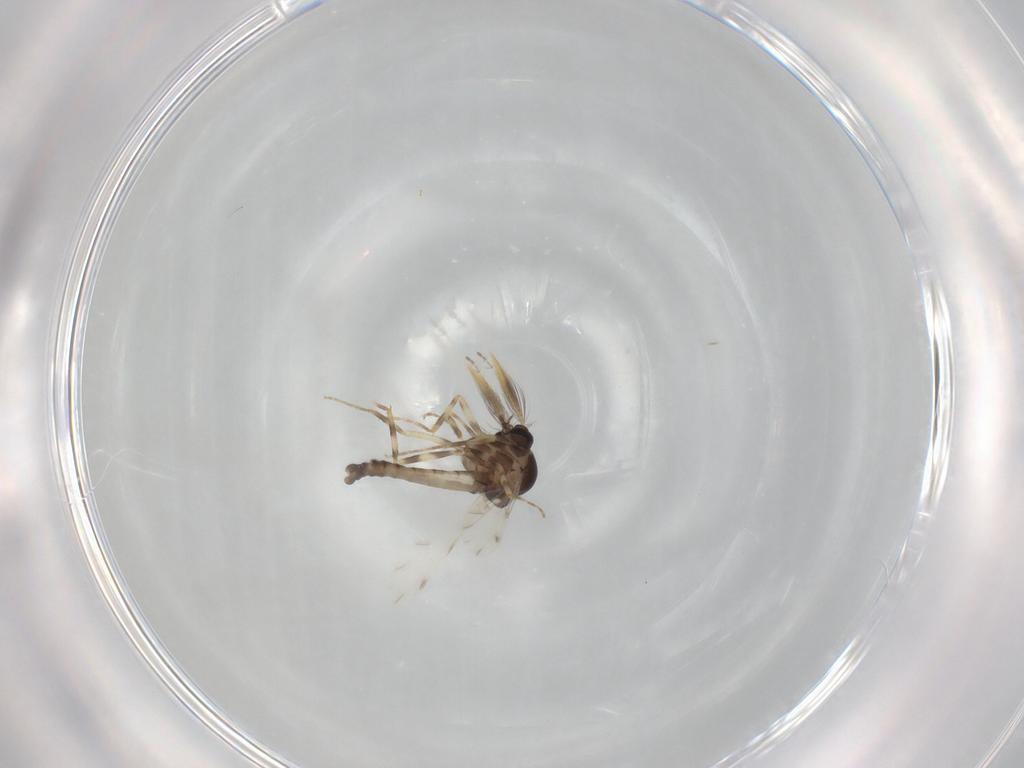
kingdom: Animalia
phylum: Arthropoda
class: Insecta
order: Diptera
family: Ceratopogonidae
